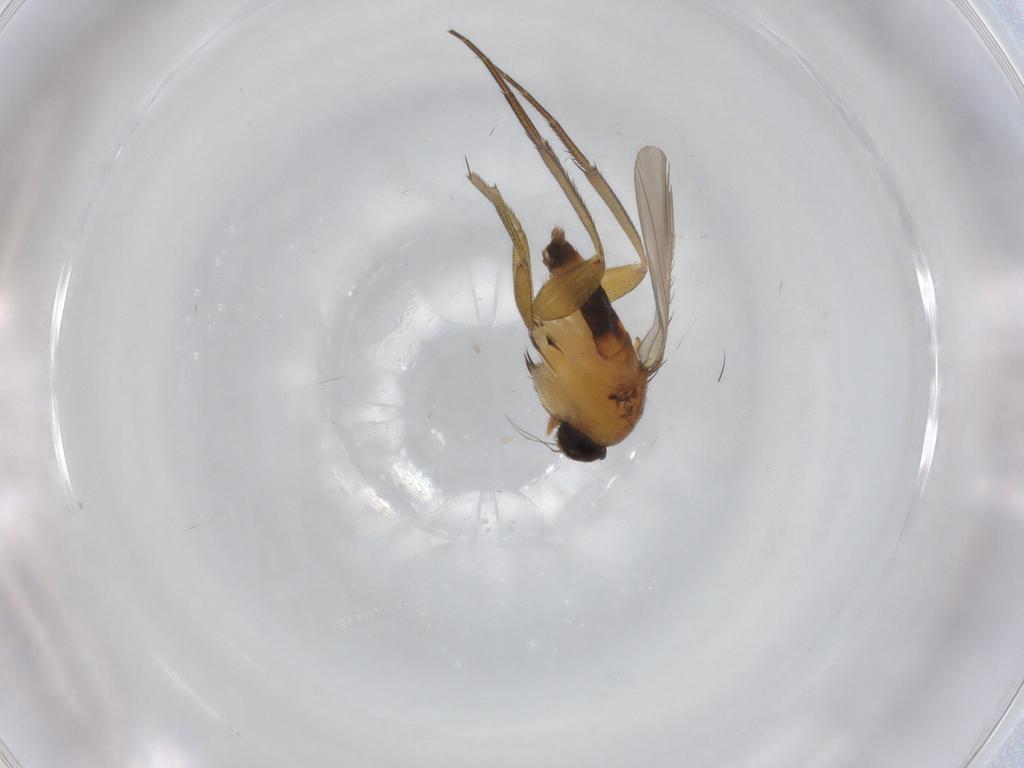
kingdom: Animalia
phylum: Arthropoda
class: Insecta
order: Diptera
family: Phoridae
